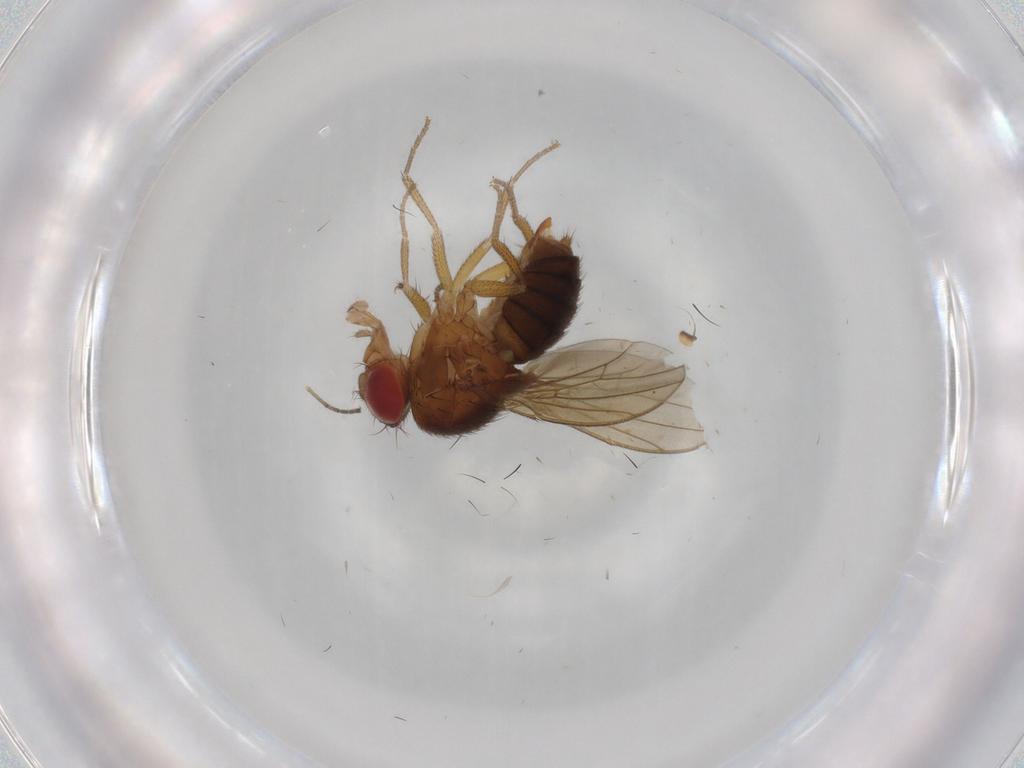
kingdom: Animalia
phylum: Arthropoda
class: Insecta
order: Diptera
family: Drosophilidae
